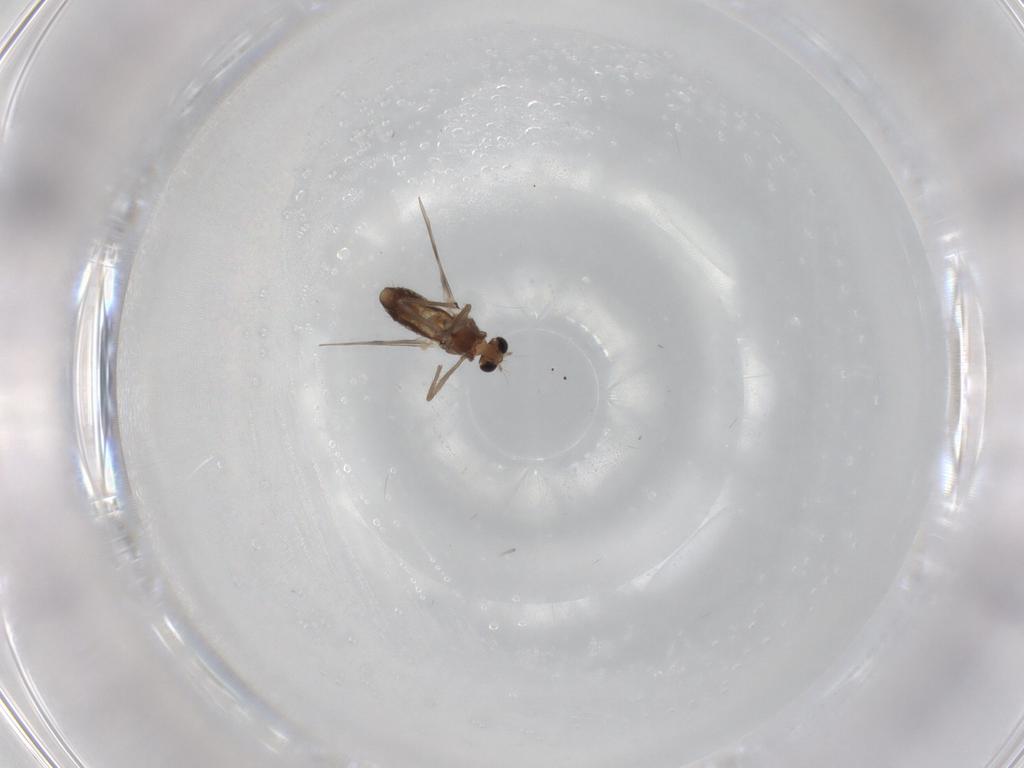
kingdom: Animalia
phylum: Arthropoda
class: Insecta
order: Diptera
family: Chironomidae
